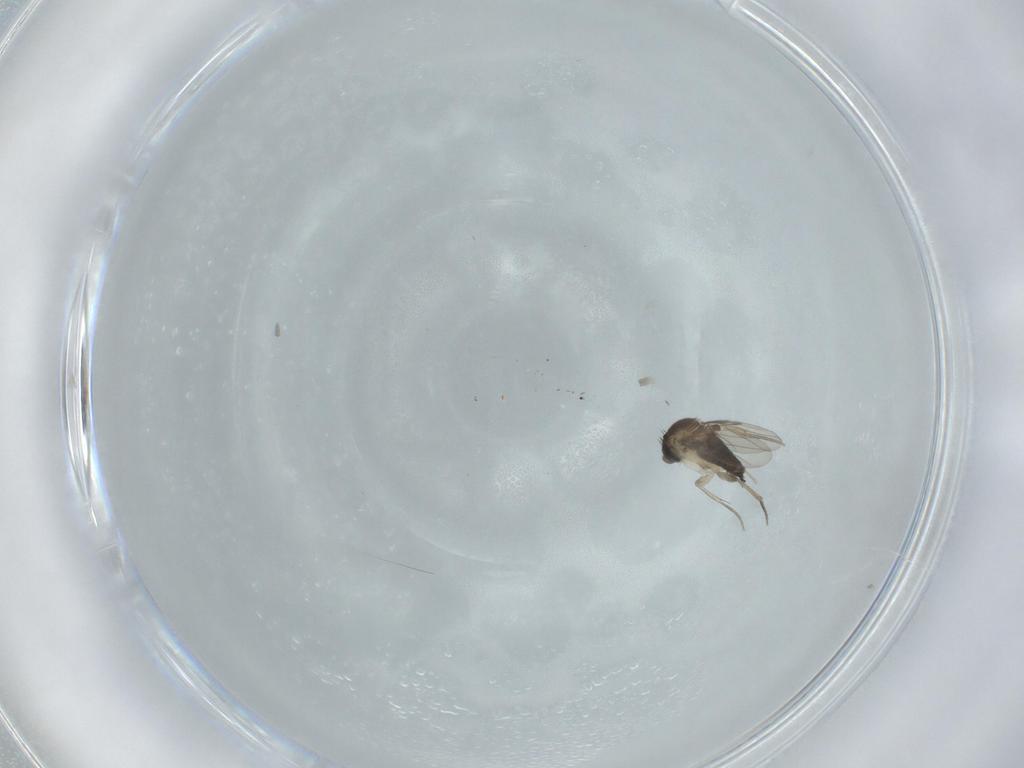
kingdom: Animalia
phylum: Arthropoda
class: Insecta
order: Diptera
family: Phoridae
